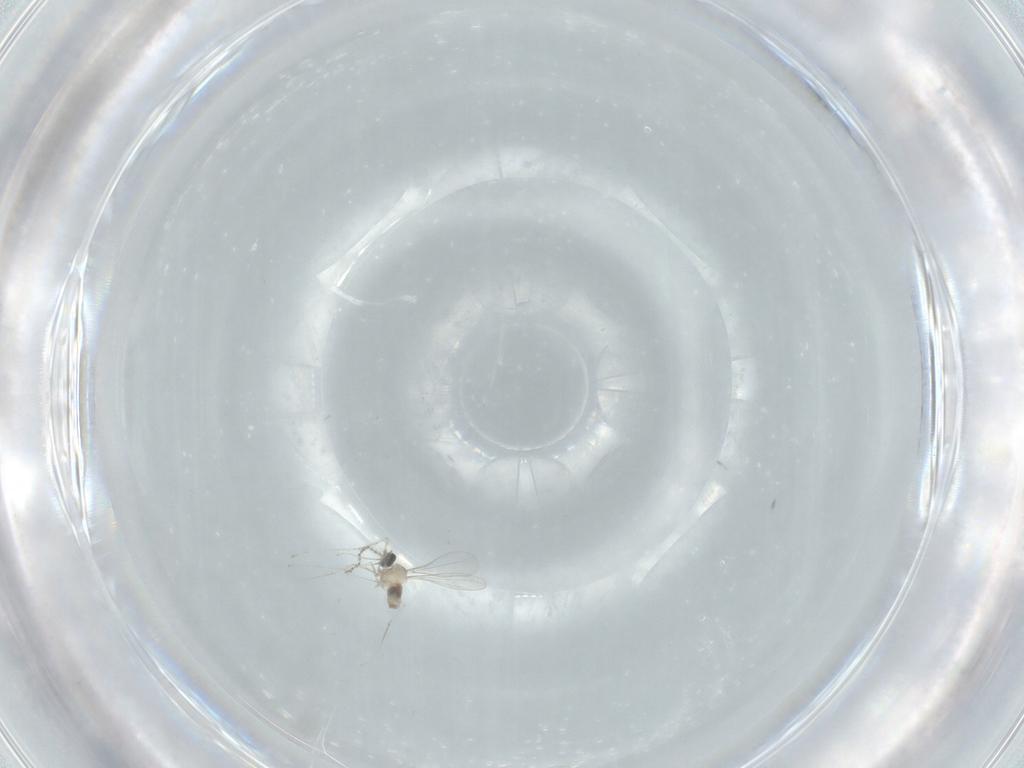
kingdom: Animalia
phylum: Arthropoda
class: Insecta
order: Diptera
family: Cecidomyiidae
